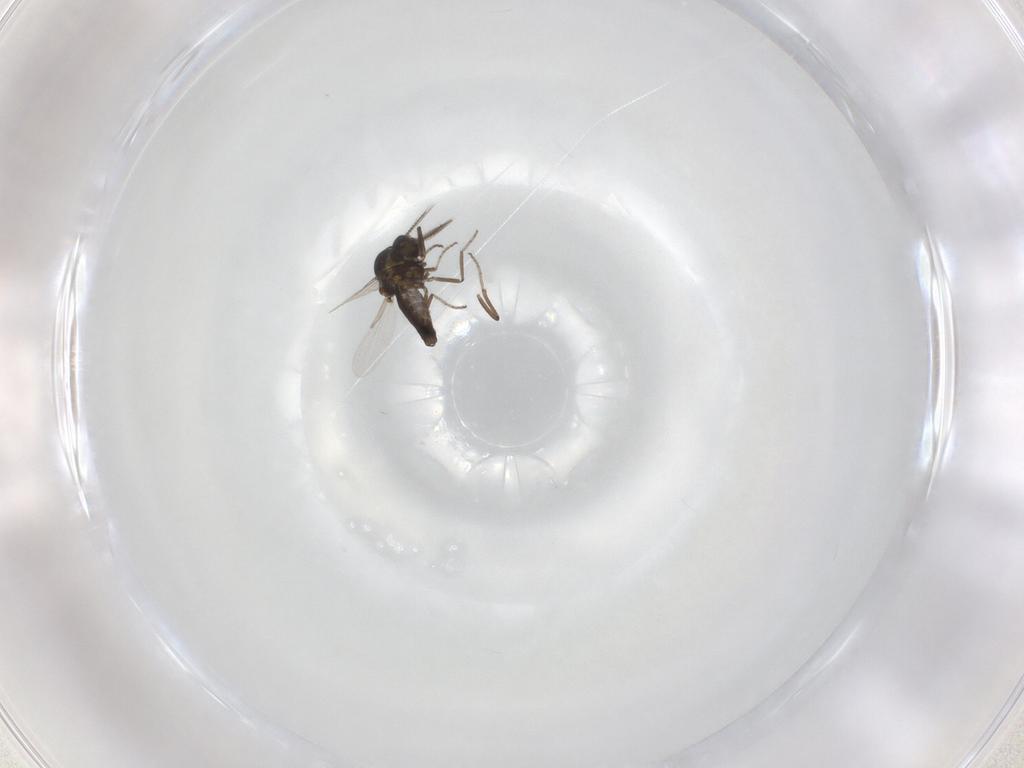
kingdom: Animalia
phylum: Arthropoda
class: Insecta
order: Diptera
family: Ceratopogonidae
